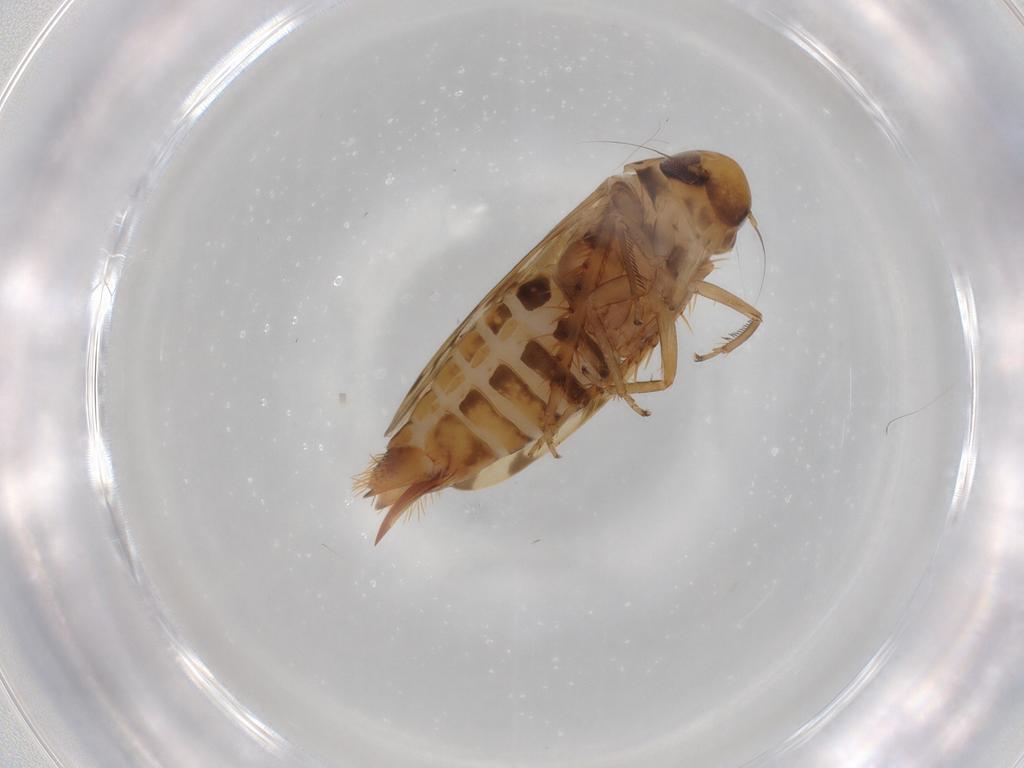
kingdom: Animalia
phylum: Arthropoda
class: Insecta
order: Hemiptera
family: Cicadellidae
